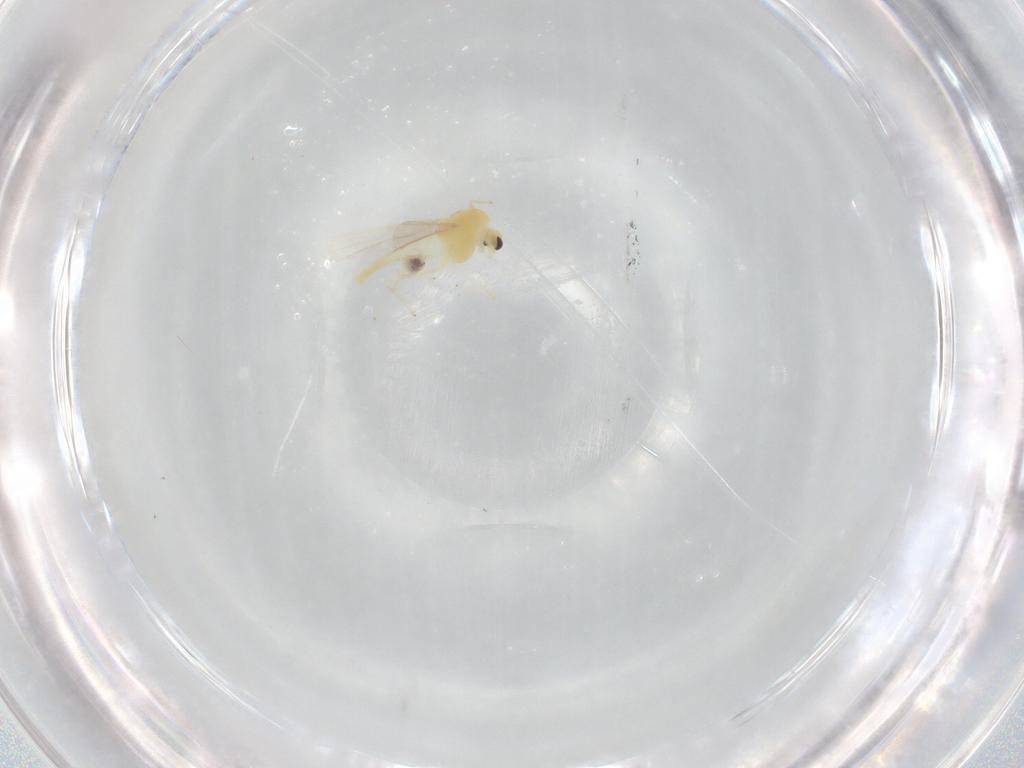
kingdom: Animalia
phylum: Arthropoda
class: Insecta
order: Diptera
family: Chironomidae
